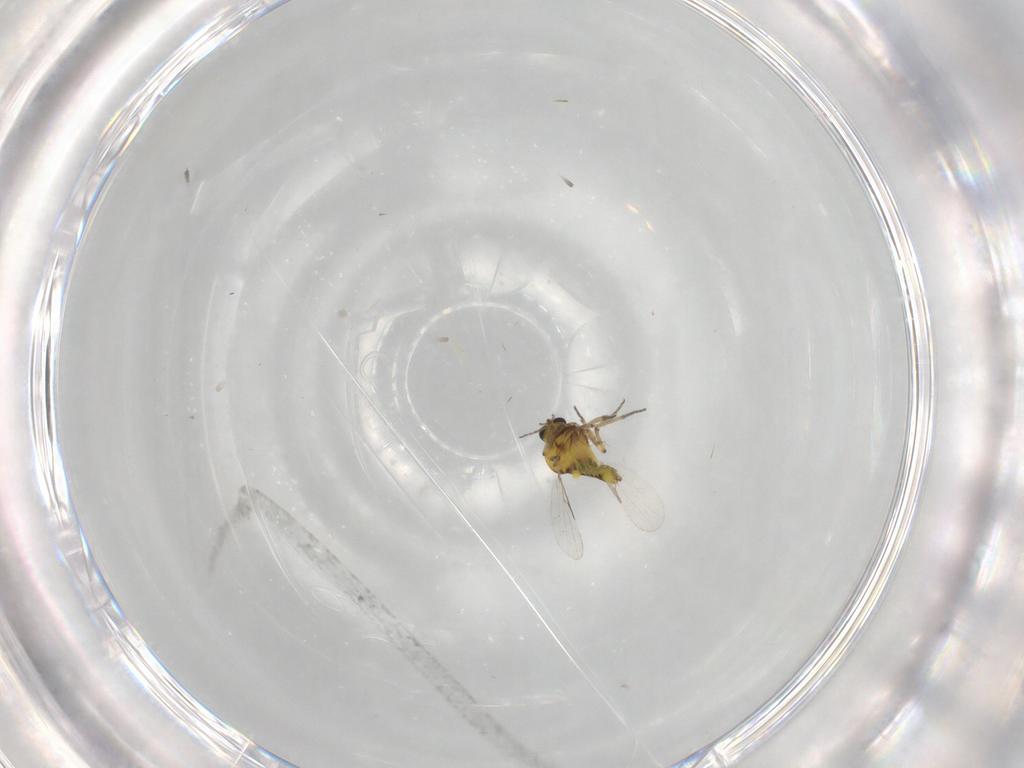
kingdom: Animalia
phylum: Arthropoda
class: Insecta
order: Diptera
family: Ceratopogonidae
